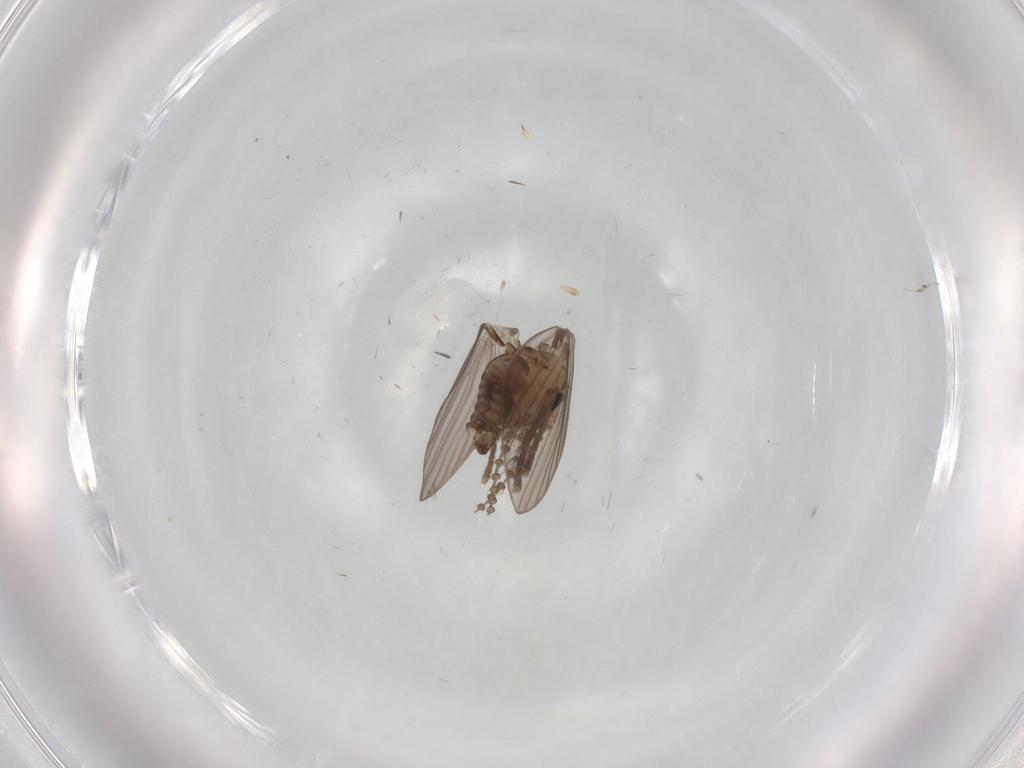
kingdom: Animalia
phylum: Arthropoda
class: Insecta
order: Diptera
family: Psychodidae
